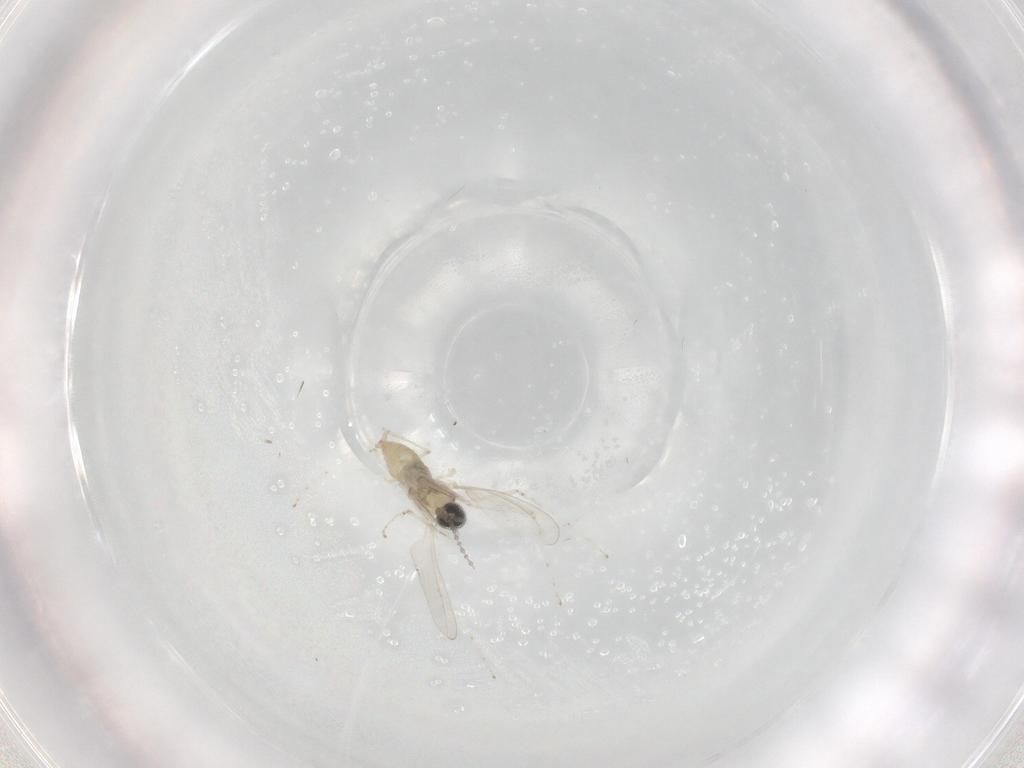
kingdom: Animalia
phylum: Arthropoda
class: Insecta
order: Diptera
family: Cecidomyiidae
